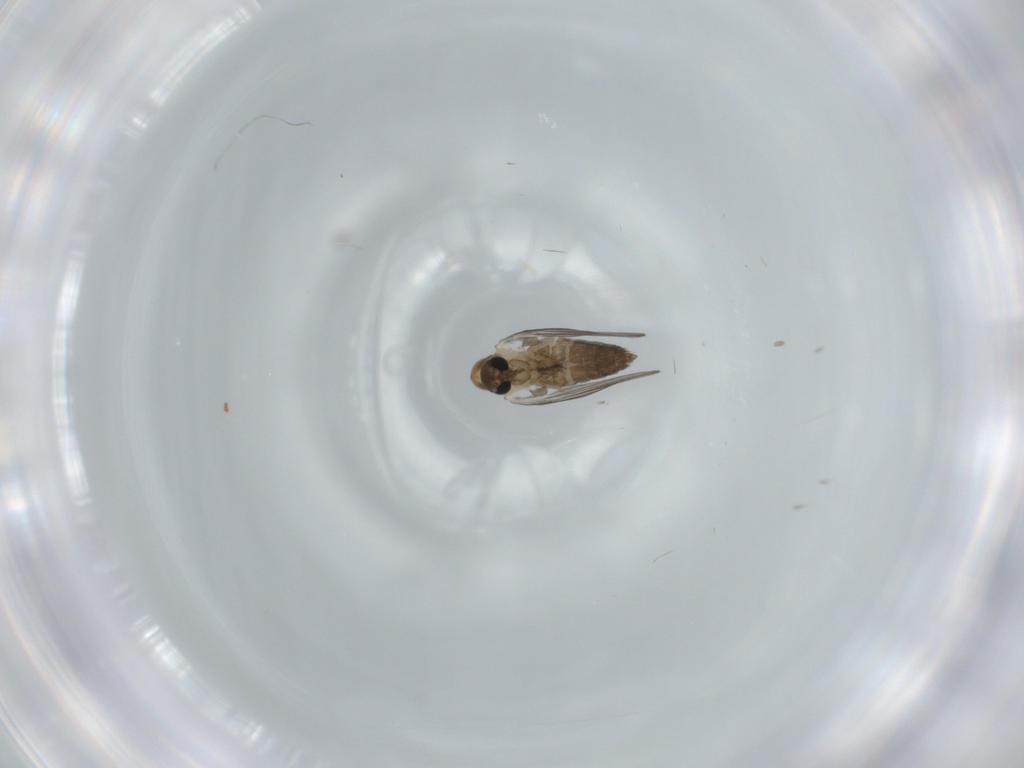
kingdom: Animalia
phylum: Arthropoda
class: Insecta
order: Diptera
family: Psychodidae
